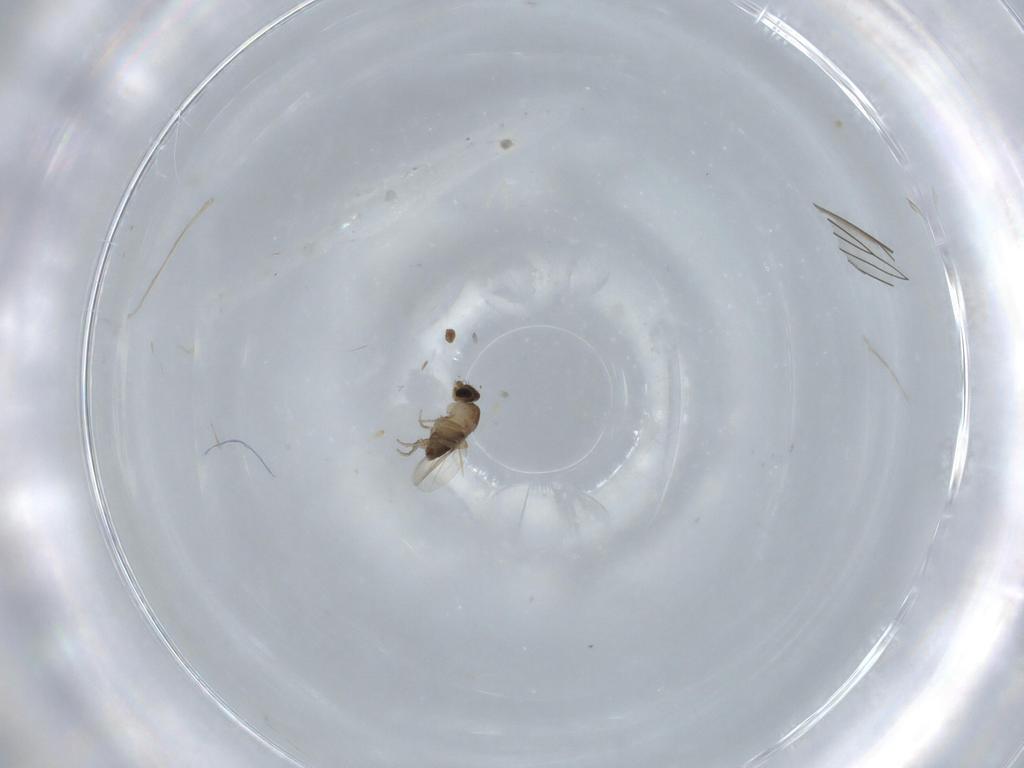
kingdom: Animalia
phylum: Arthropoda
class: Insecta
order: Diptera
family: Phoridae
